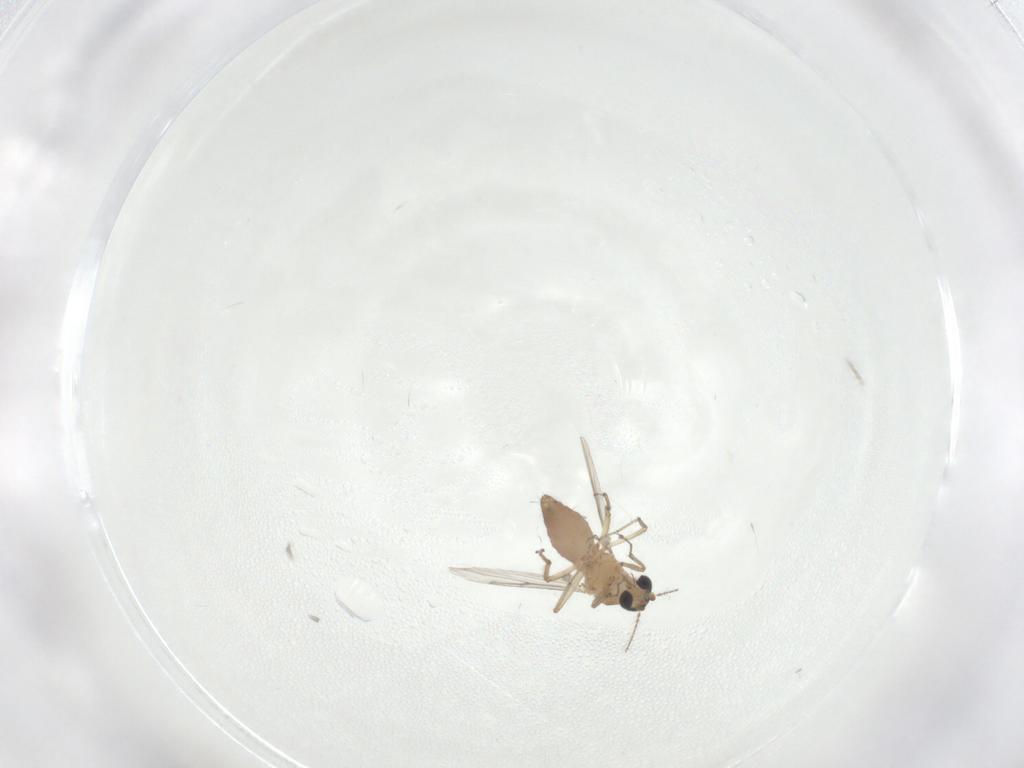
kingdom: Animalia
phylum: Arthropoda
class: Insecta
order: Diptera
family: Ceratopogonidae
